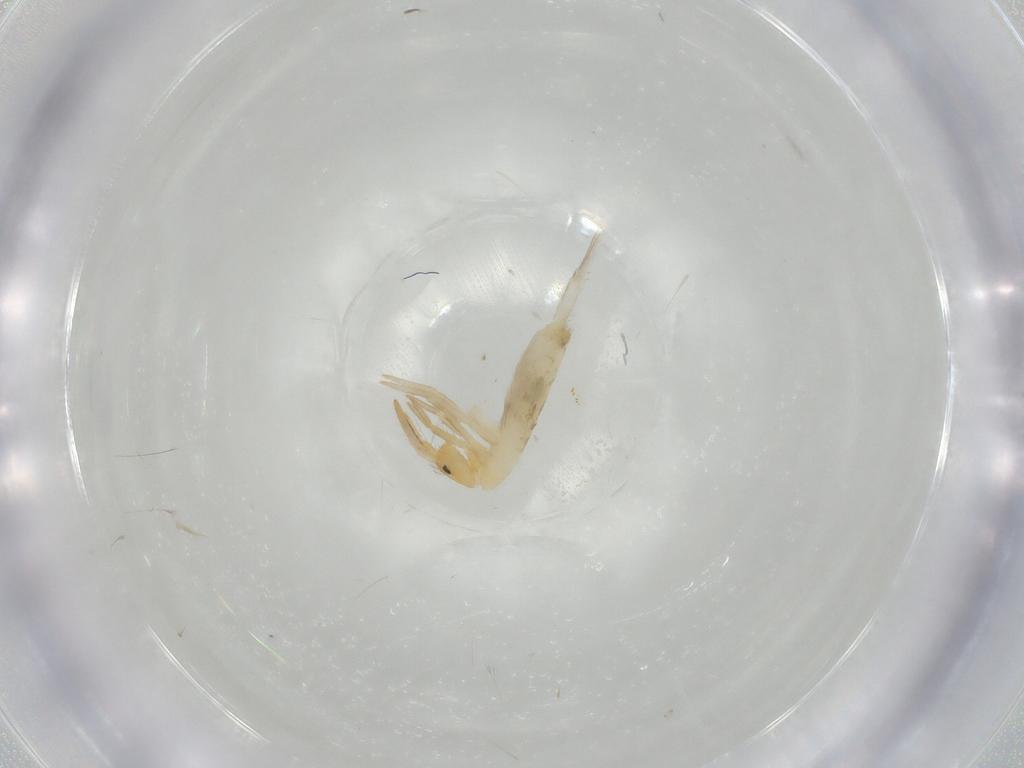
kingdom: Animalia
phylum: Arthropoda
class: Collembola
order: Entomobryomorpha
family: Entomobryidae
